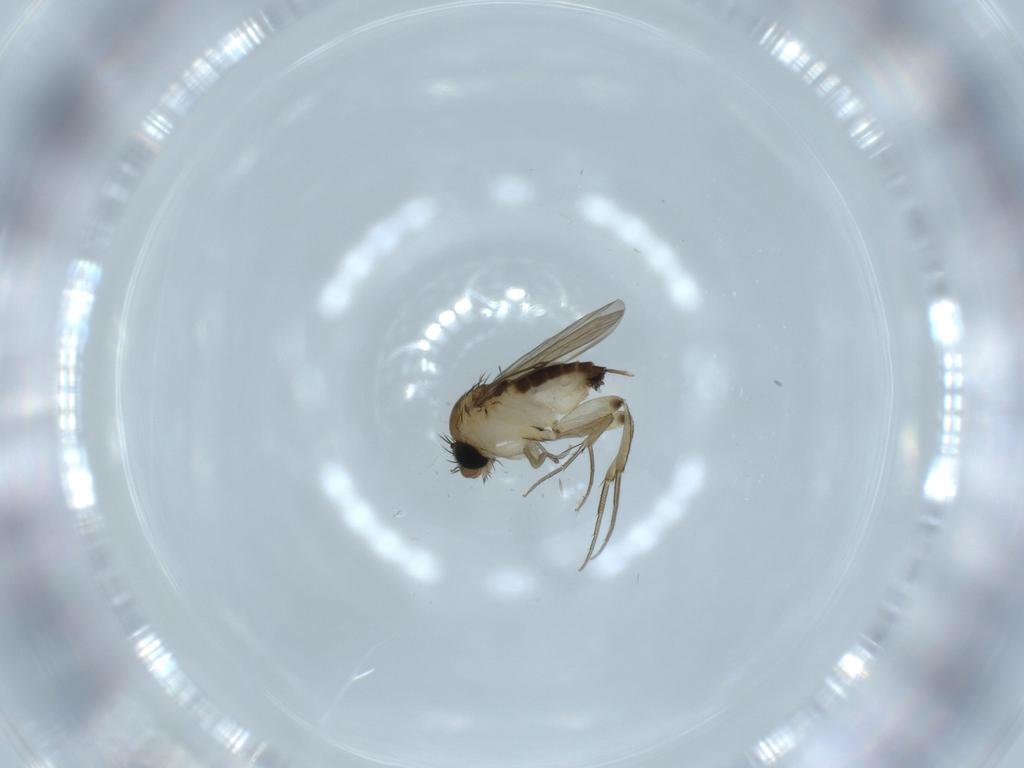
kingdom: Animalia
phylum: Arthropoda
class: Insecta
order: Diptera
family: Phoridae
